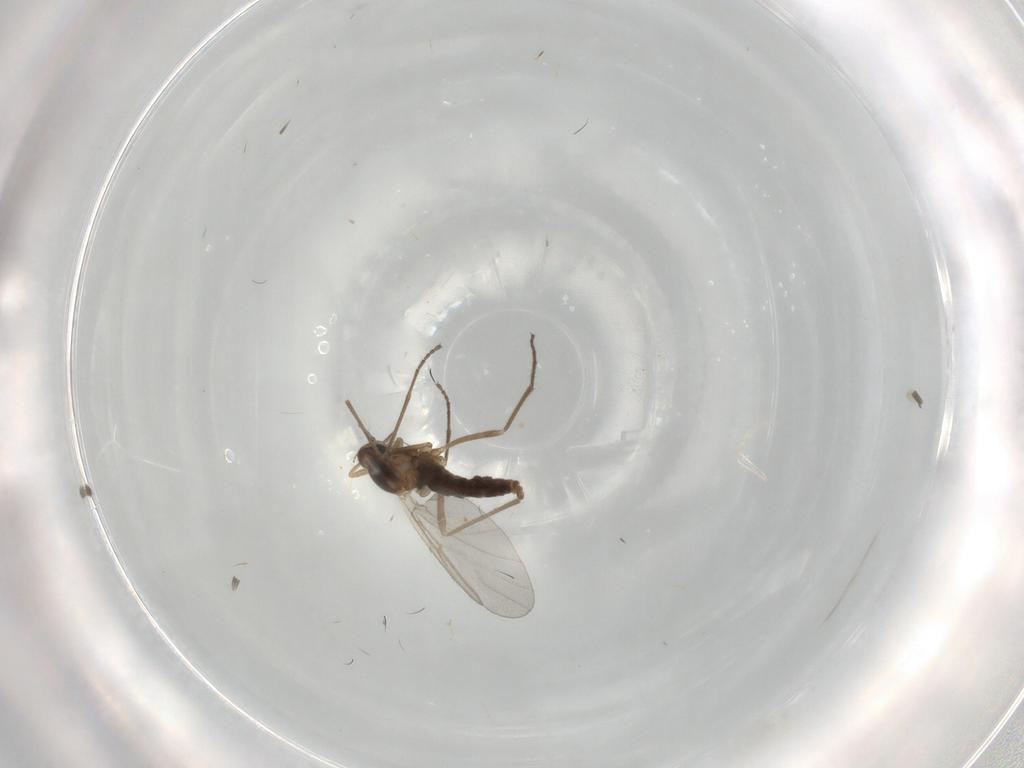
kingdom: Animalia
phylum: Arthropoda
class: Insecta
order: Diptera
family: Cecidomyiidae
